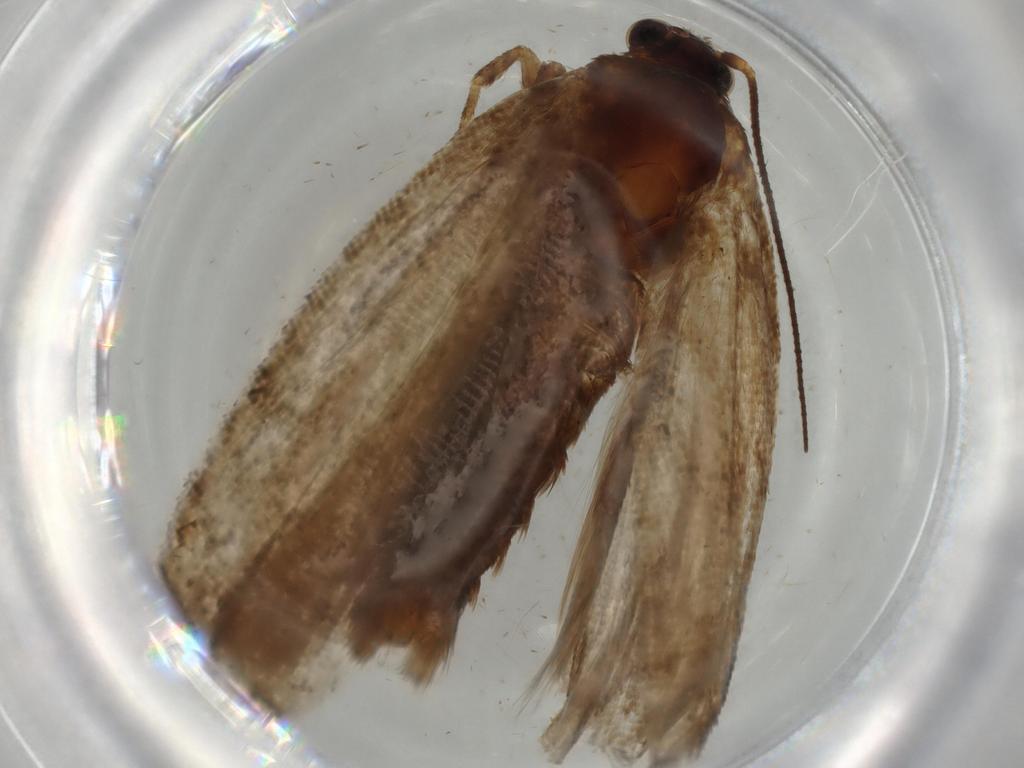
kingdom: Animalia
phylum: Arthropoda
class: Insecta
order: Lepidoptera
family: Tortricidae
